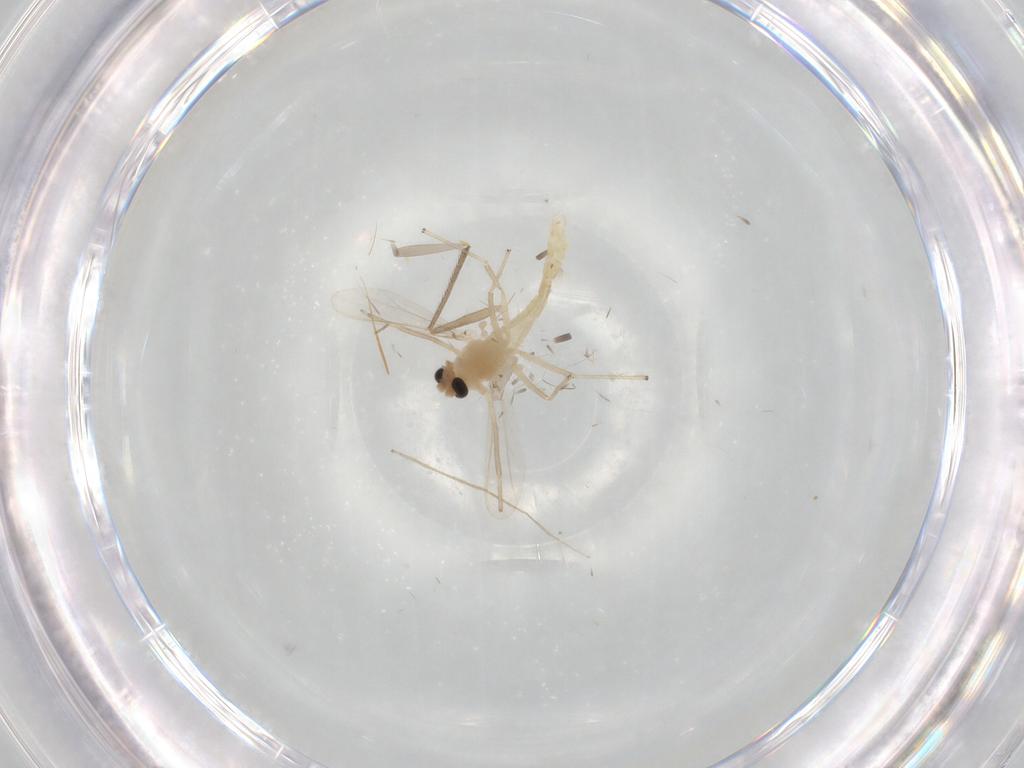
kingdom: Animalia
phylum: Arthropoda
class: Insecta
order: Diptera
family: Chironomidae
